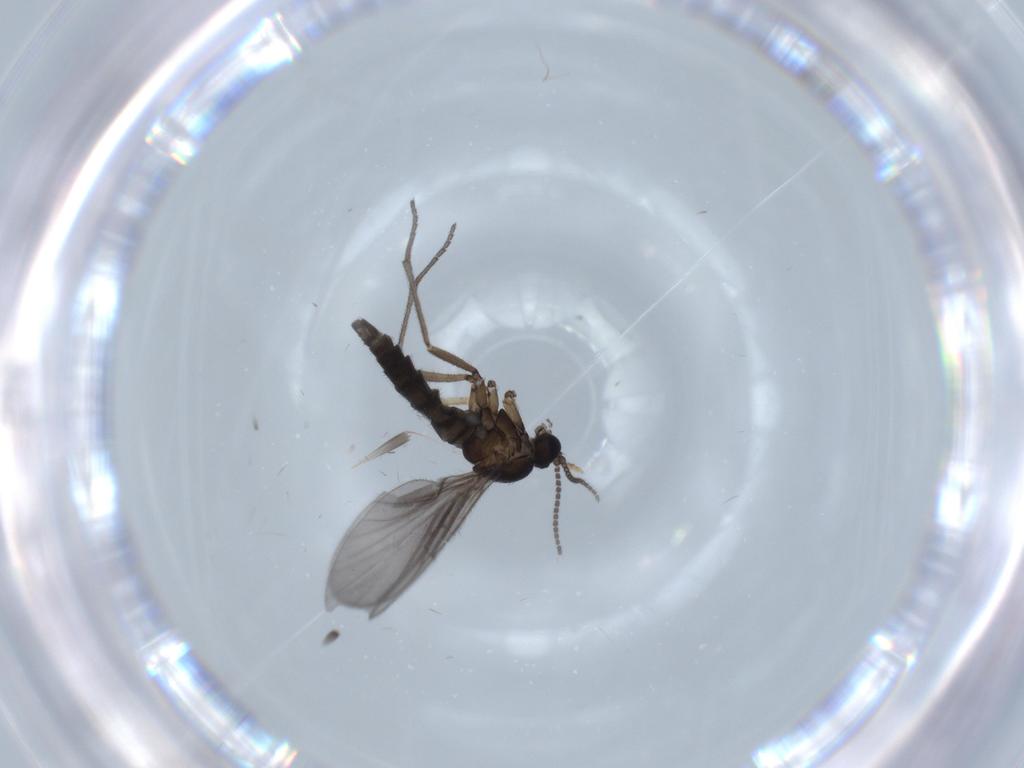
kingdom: Animalia
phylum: Arthropoda
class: Insecta
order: Diptera
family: Sciaridae
